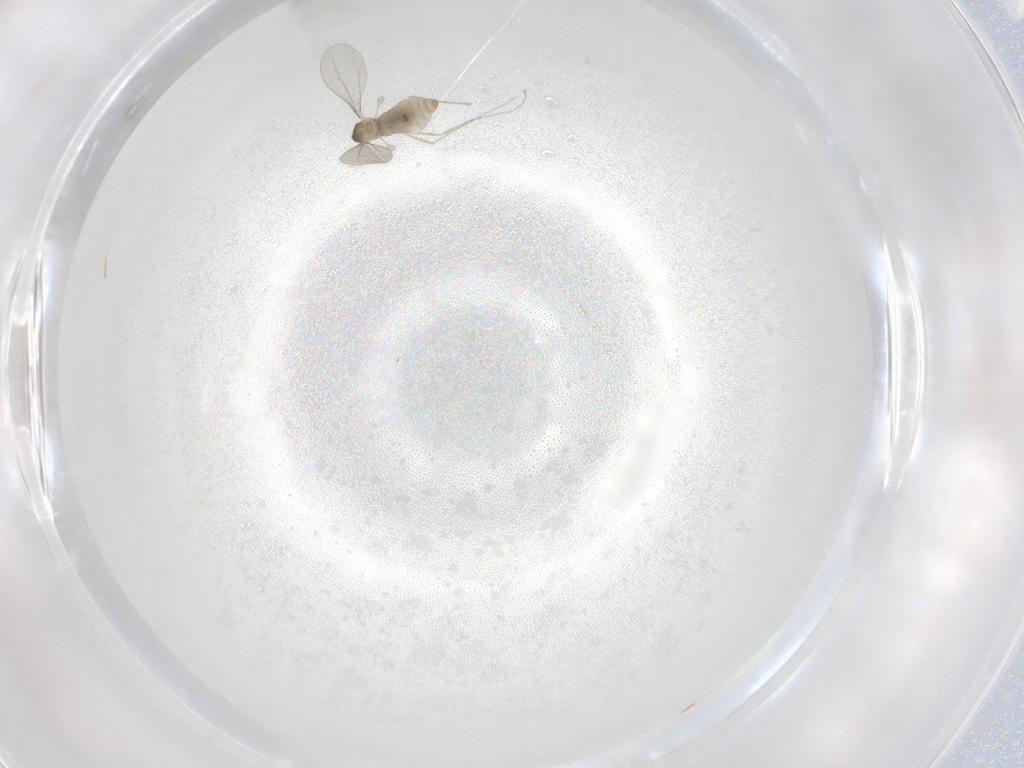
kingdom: Animalia
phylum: Arthropoda
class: Insecta
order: Diptera
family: Cecidomyiidae
